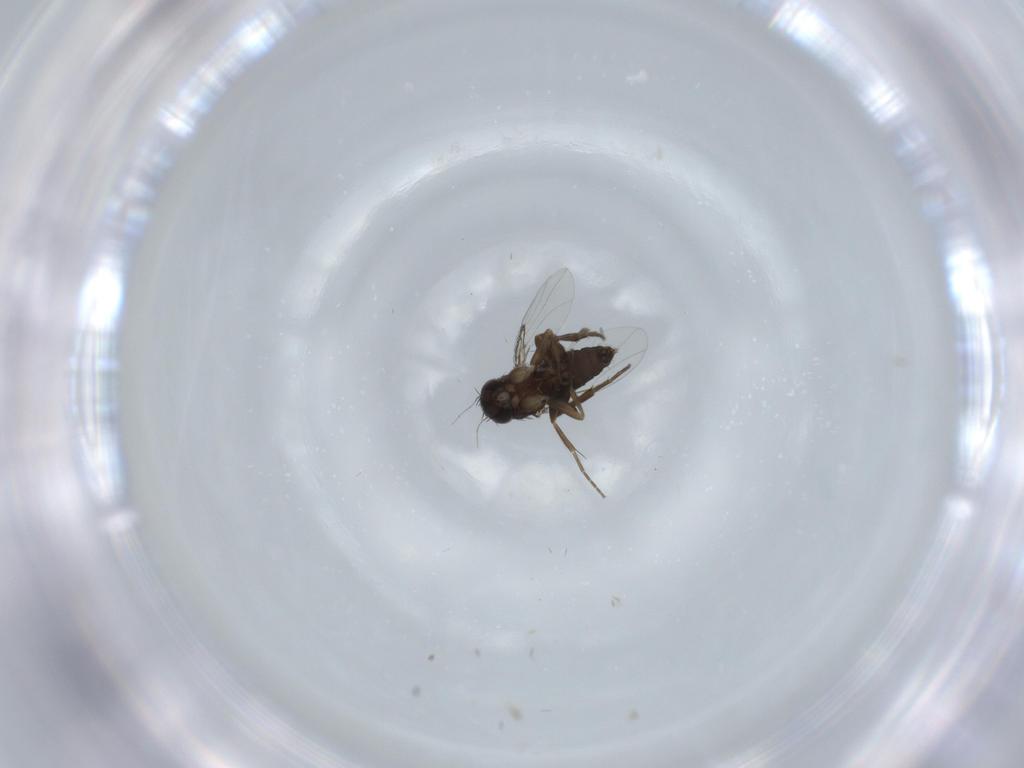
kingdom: Animalia
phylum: Arthropoda
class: Insecta
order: Diptera
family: Phoridae
